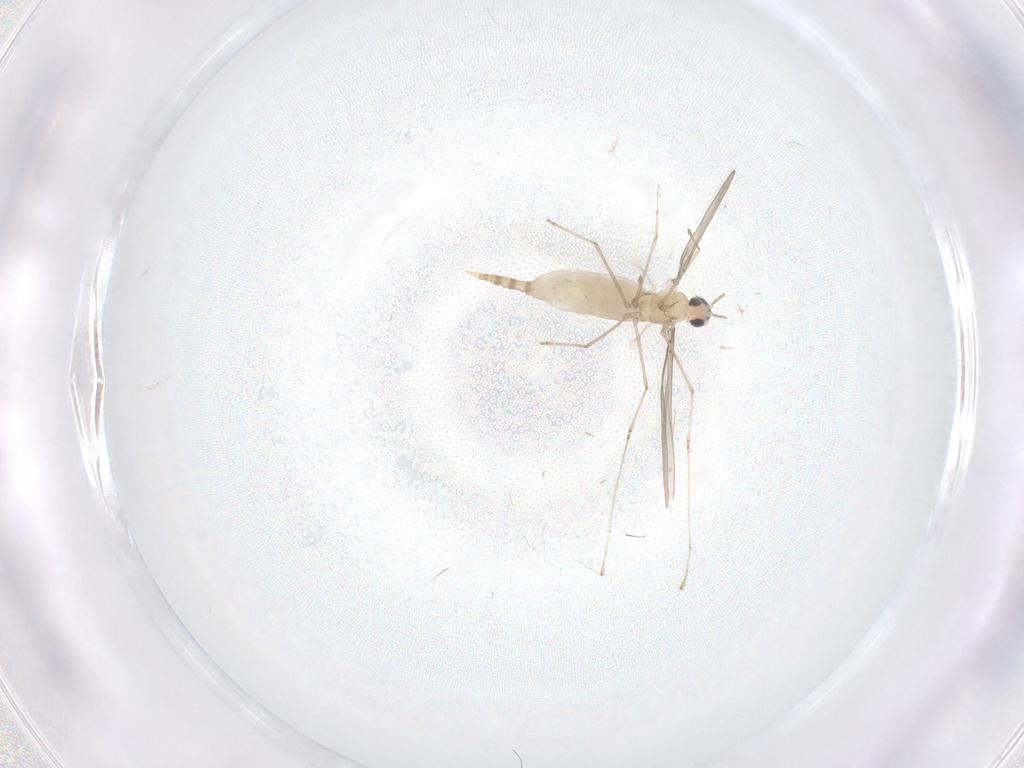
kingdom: Animalia
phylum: Arthropoda
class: Insecta
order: Diptera
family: Cecidomyiidae
